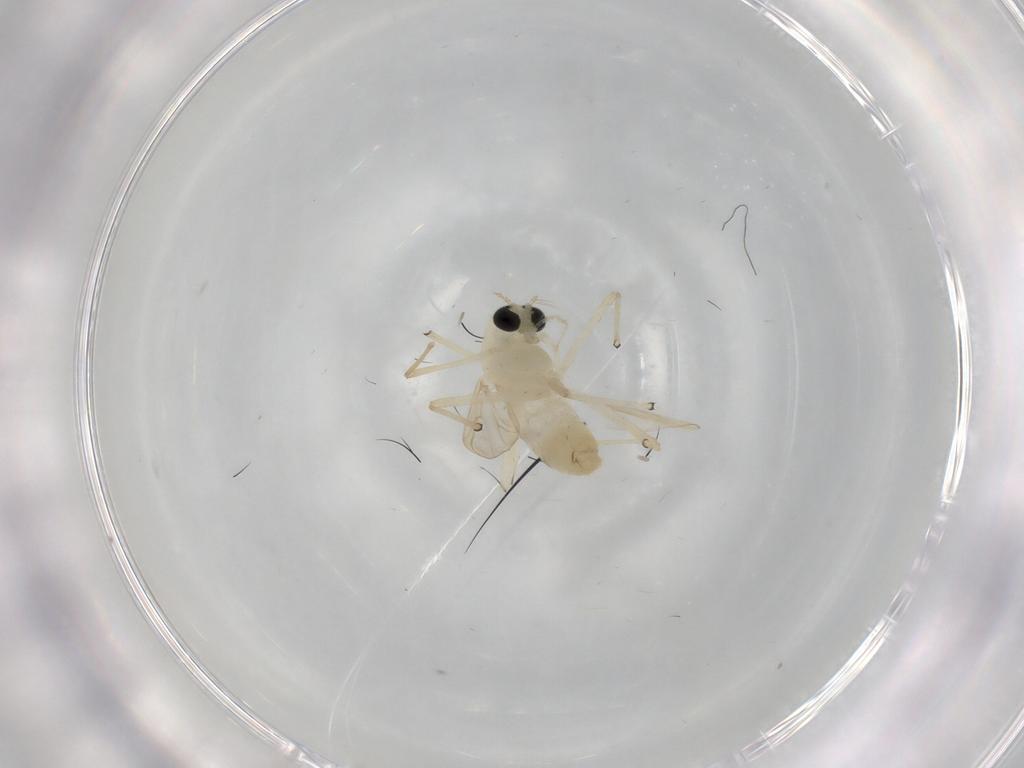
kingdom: Animalia
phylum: Arthropoda
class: Insecta
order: Diptera
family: Chironomidae
